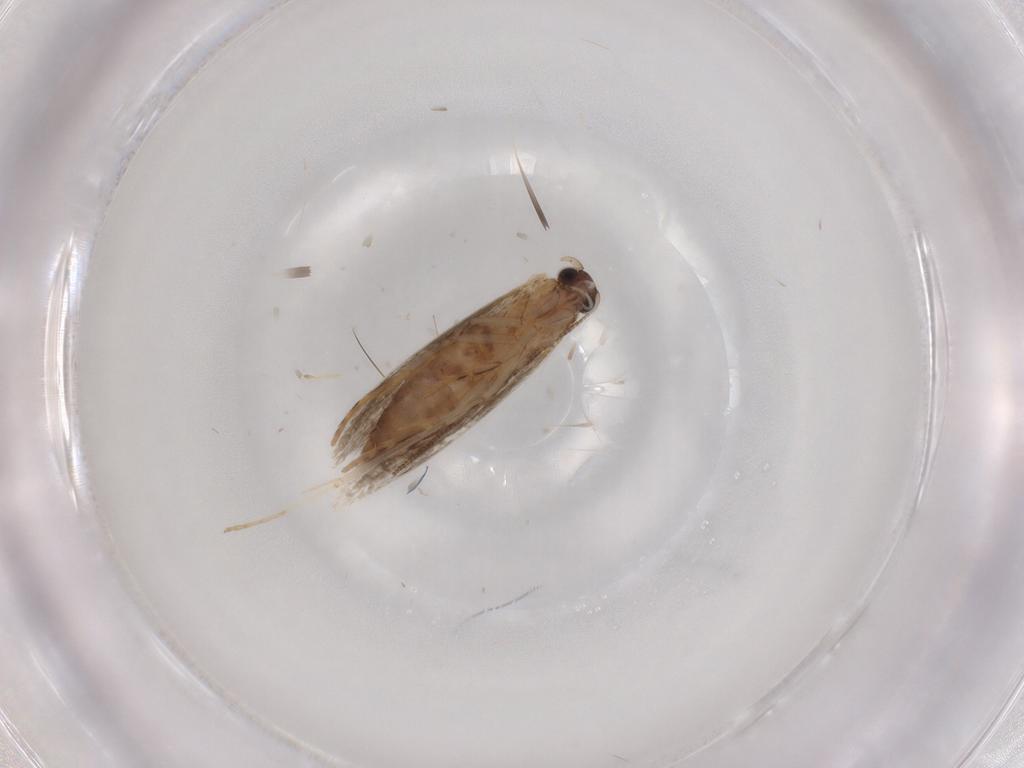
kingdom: Animalia
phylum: Arthropoda
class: Insecta
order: Lepidoptera
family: Tineidae
